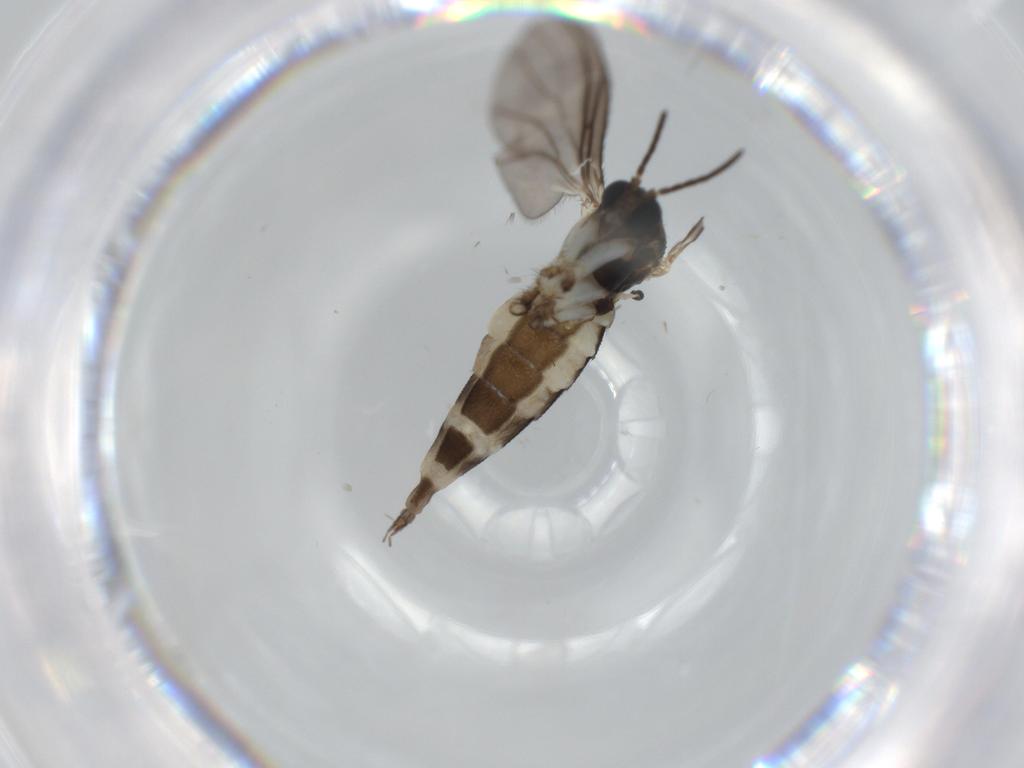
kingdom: Animalia
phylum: Arthropoda
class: Insecta
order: Diptera
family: Sciaridae
